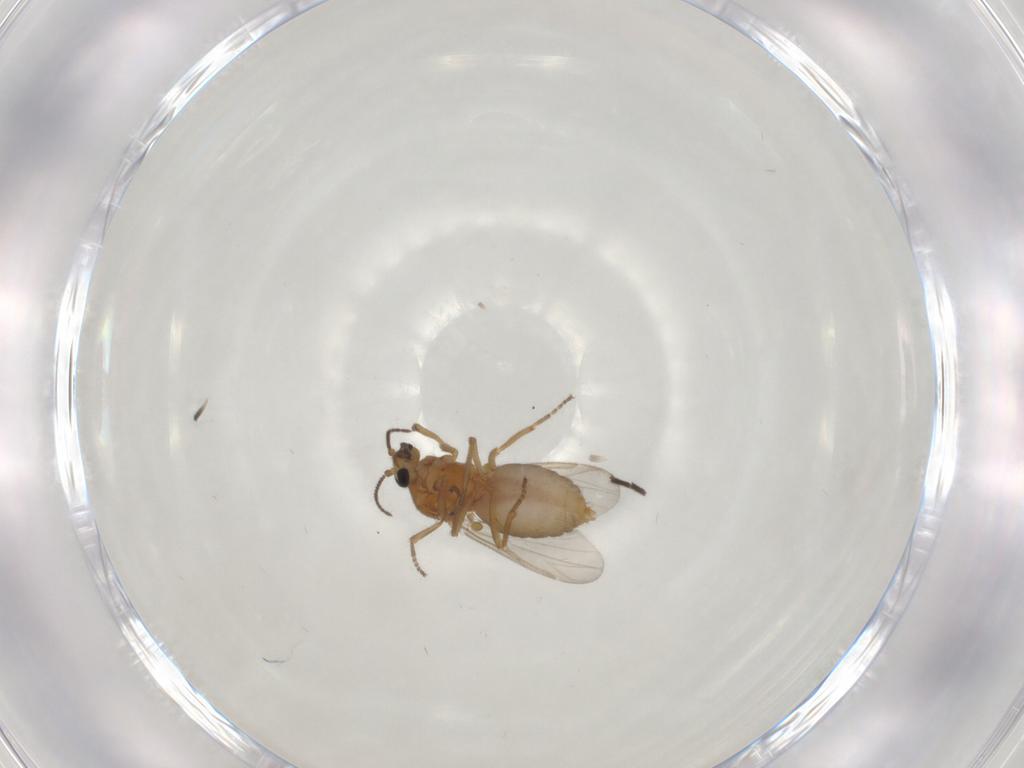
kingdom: Animalia
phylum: Arthropoda
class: Insecta
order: Diptera
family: Ceratopogonidae
